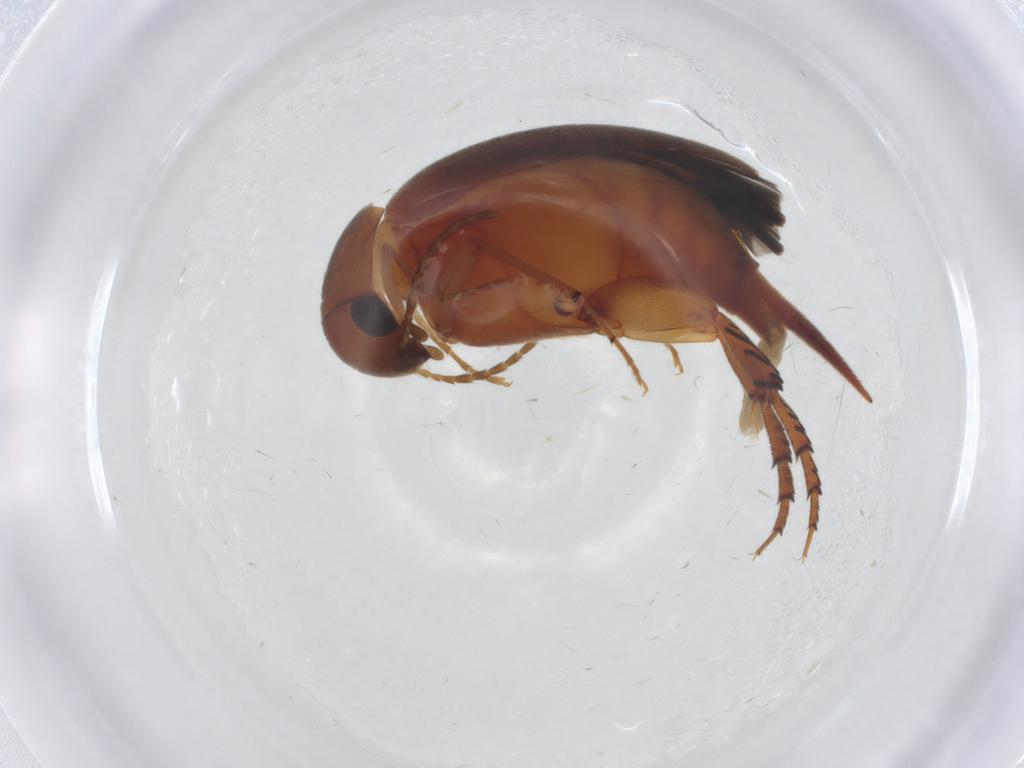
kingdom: Animalia
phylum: Arthropoda
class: Insecta
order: Coleoptera
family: Mordellidae
